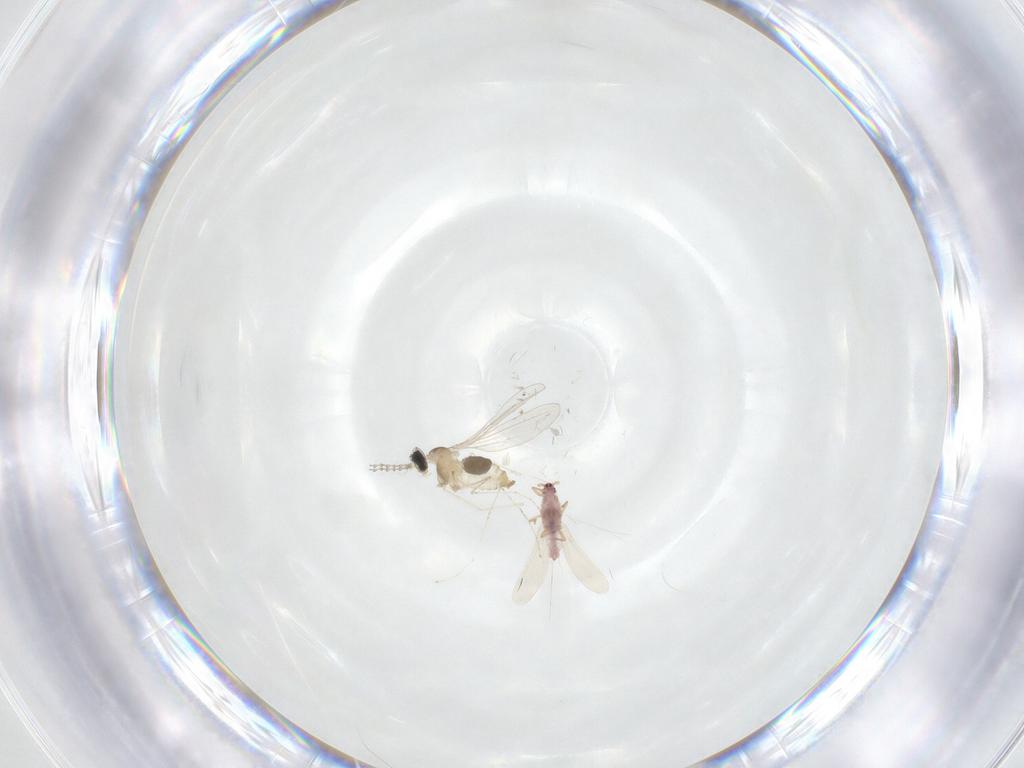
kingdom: Animalia
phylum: Arthropoda
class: Insecta
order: Diptera
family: Cecidomyiidae
